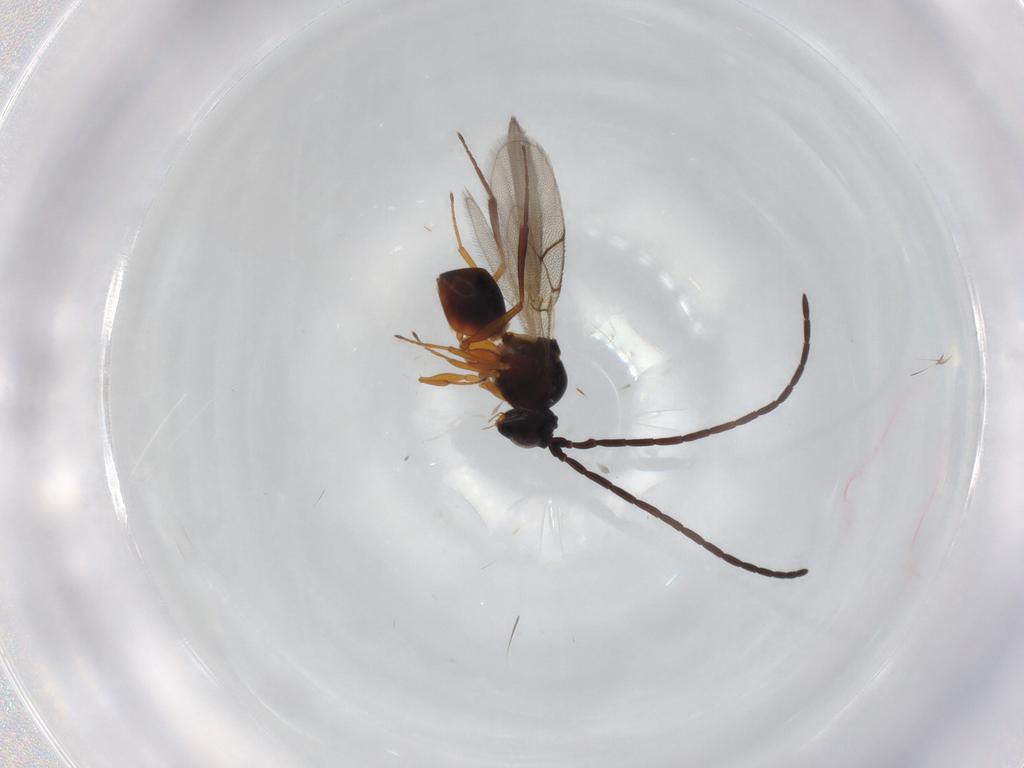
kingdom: Animalia
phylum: Arthropoda
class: Insecta
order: Hymenoptera
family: Figitidae
